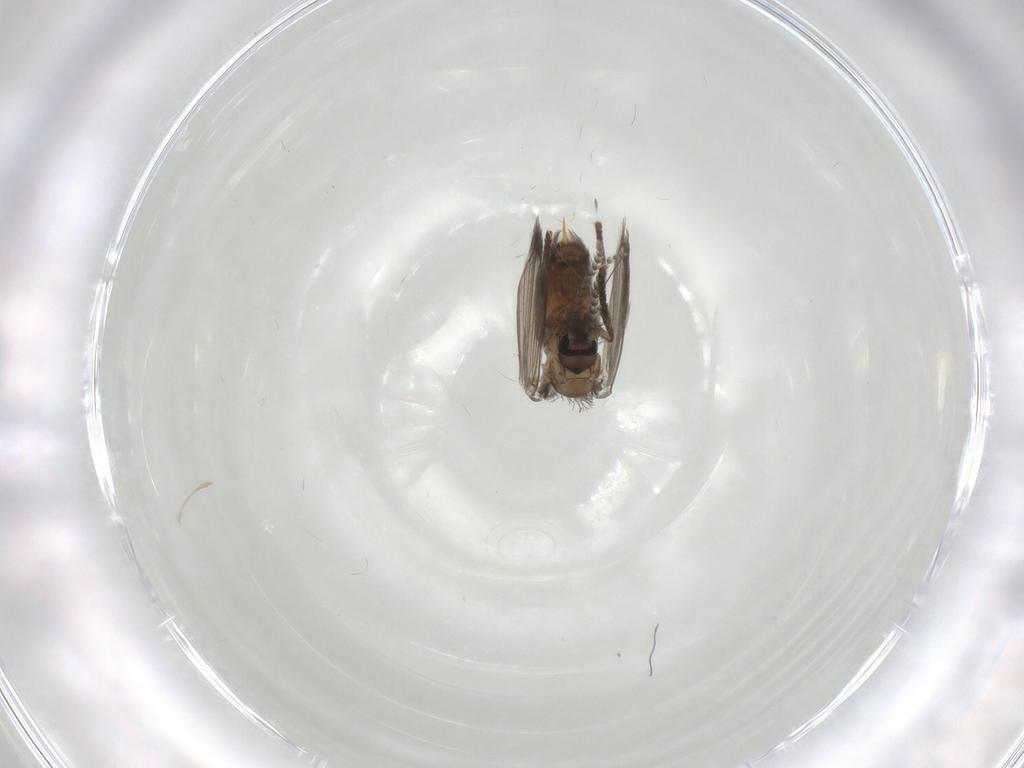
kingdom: Animalia
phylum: Arthropoda
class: Insecta
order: Diptera
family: Psychodidae
